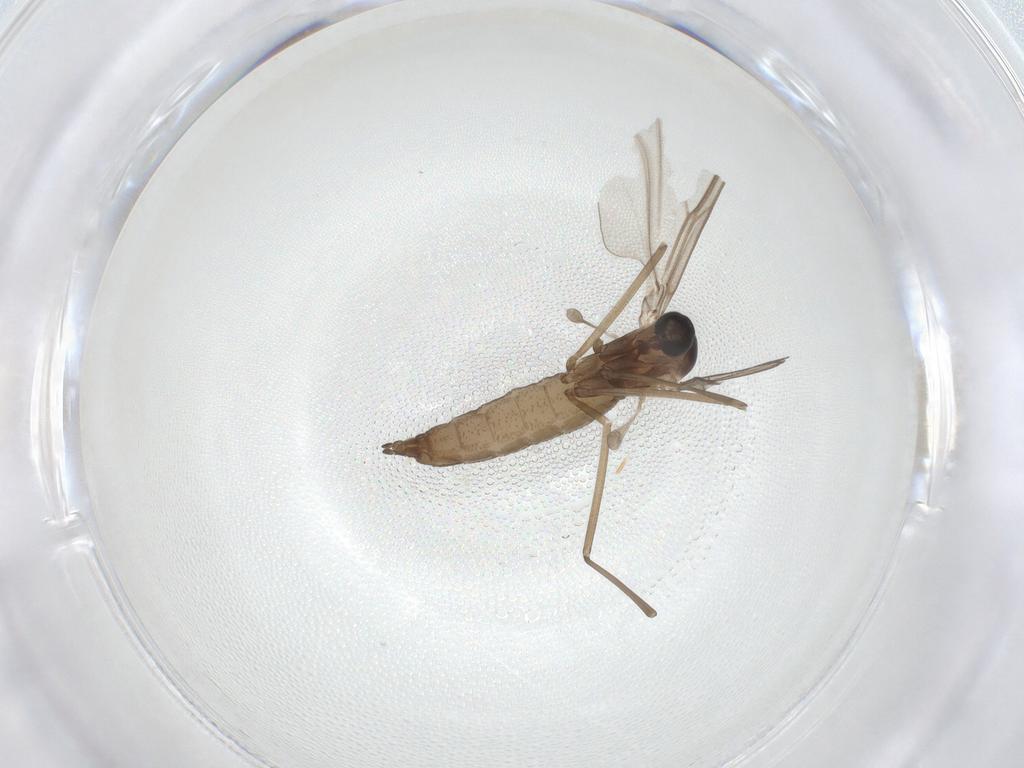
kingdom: Animalia
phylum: Arthropoda
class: Insecta
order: Diptera
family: Cecidomyiidae
